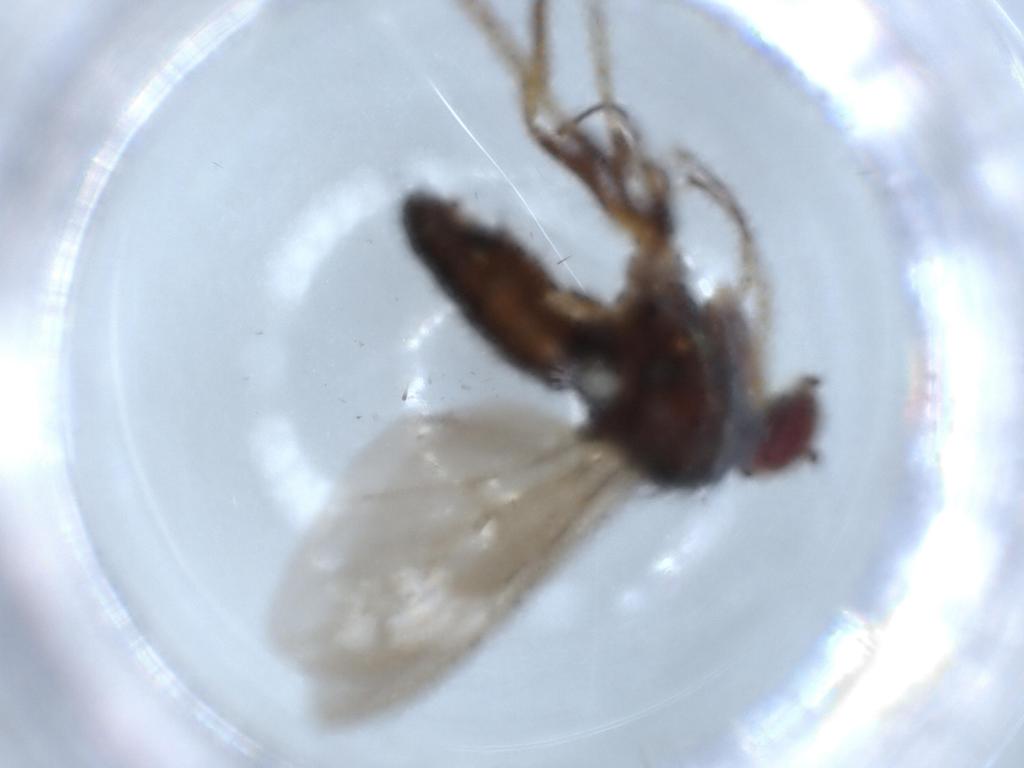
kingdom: Animalia
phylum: Arthropoda
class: Insecta
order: Diptera
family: Dolichopodidae
